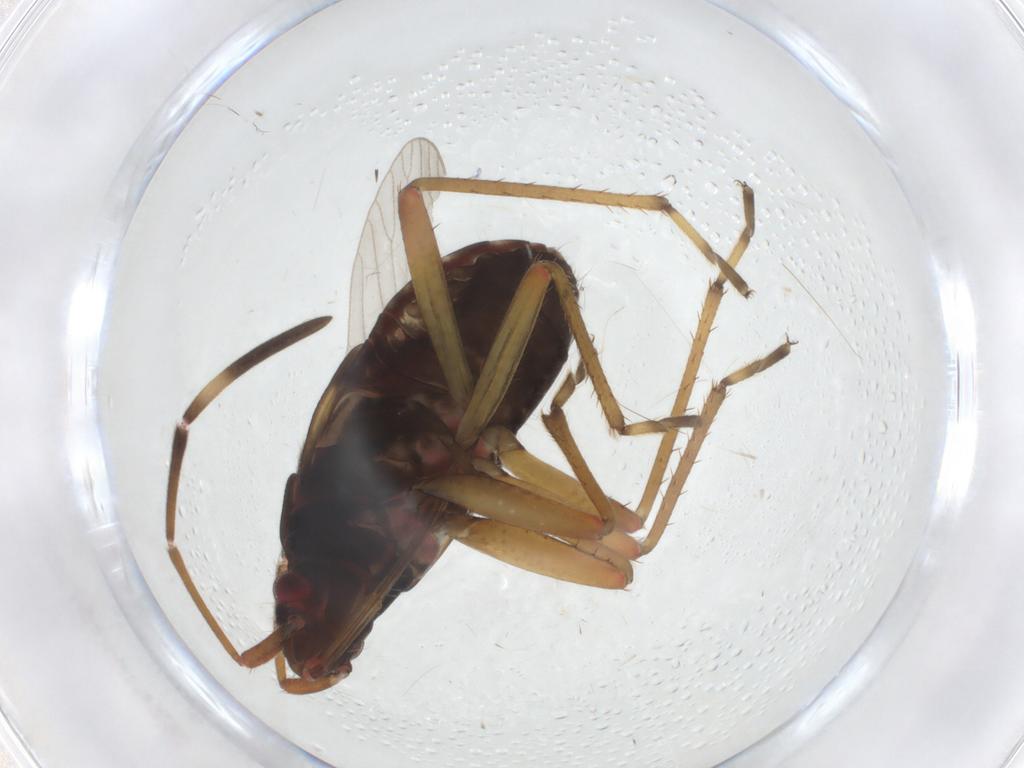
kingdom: Animalia
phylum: Arthropoda
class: Insecta
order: Hemiptera
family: Rhyparochromidae
